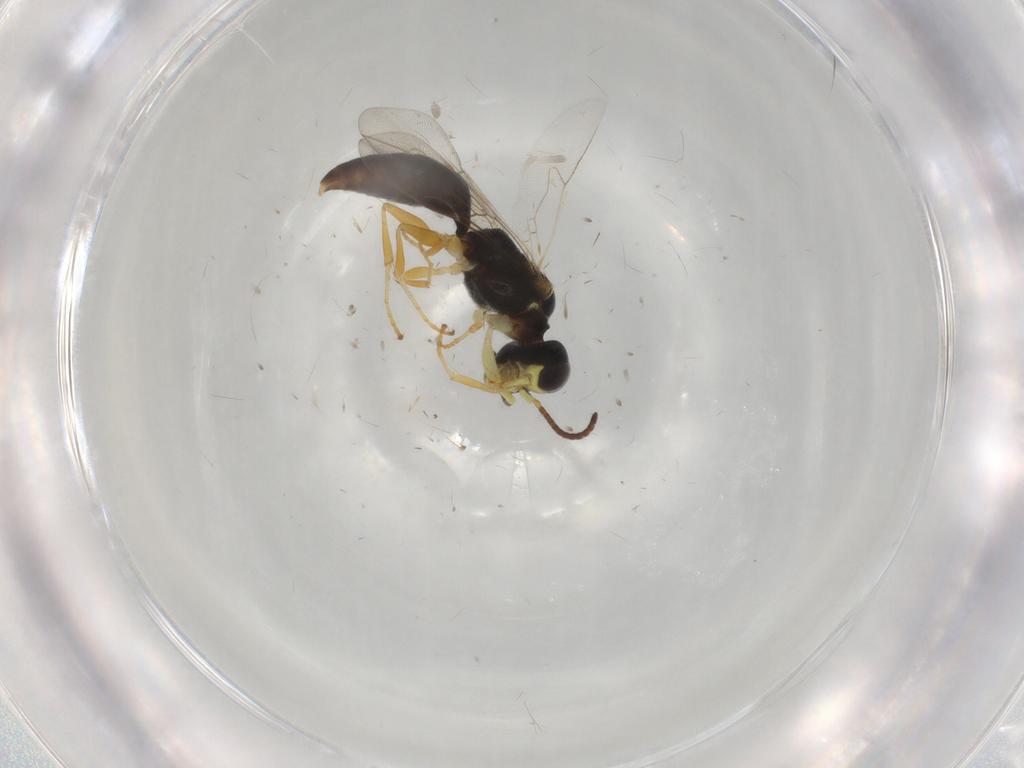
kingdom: Animalia
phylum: Arthropoda
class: Insecta
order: Hymenoptera
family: Pemphredonidae
